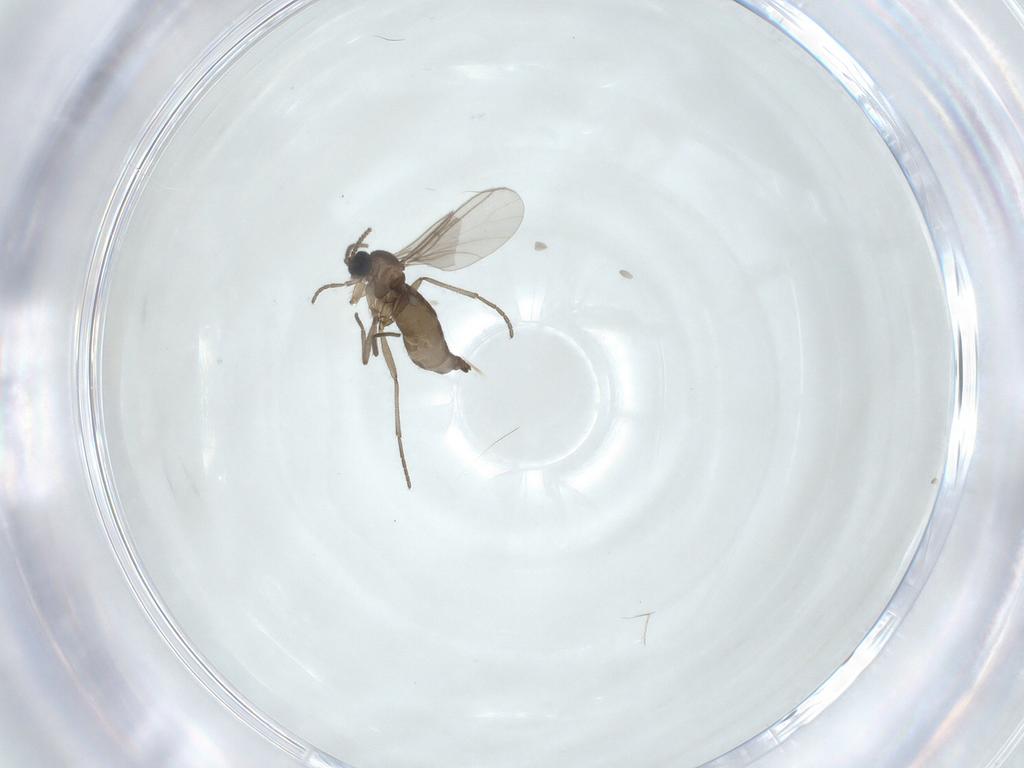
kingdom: Animalia
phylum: Arthropoda
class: Insecta
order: Diptera
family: Sciaridae
